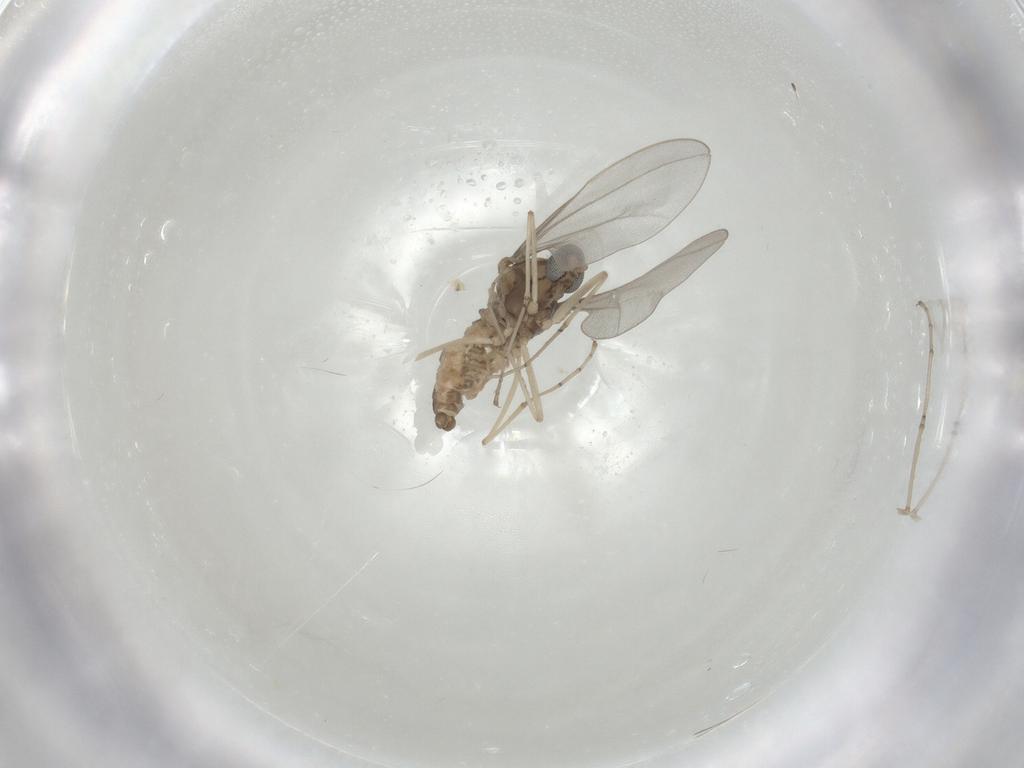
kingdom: Animalia
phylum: Arthropoda
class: Insecta
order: Diptera
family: Cecidomyiidae
